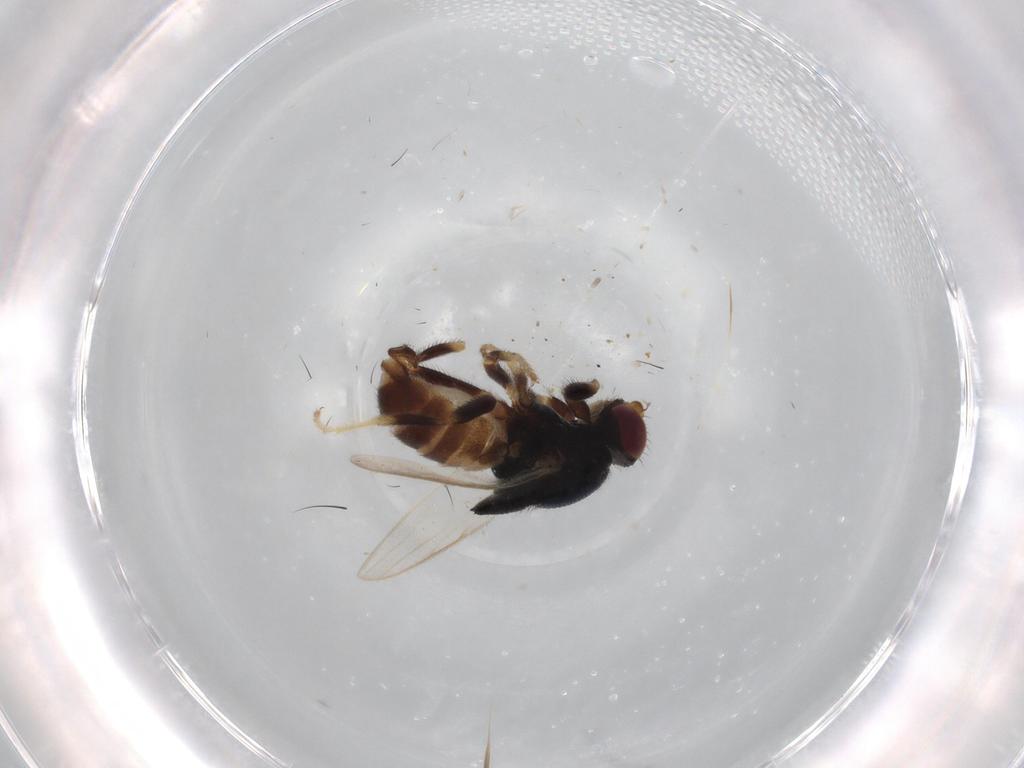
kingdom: Animalia
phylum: Arthropoda
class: Insecta
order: Diptera
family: Chloropidae
